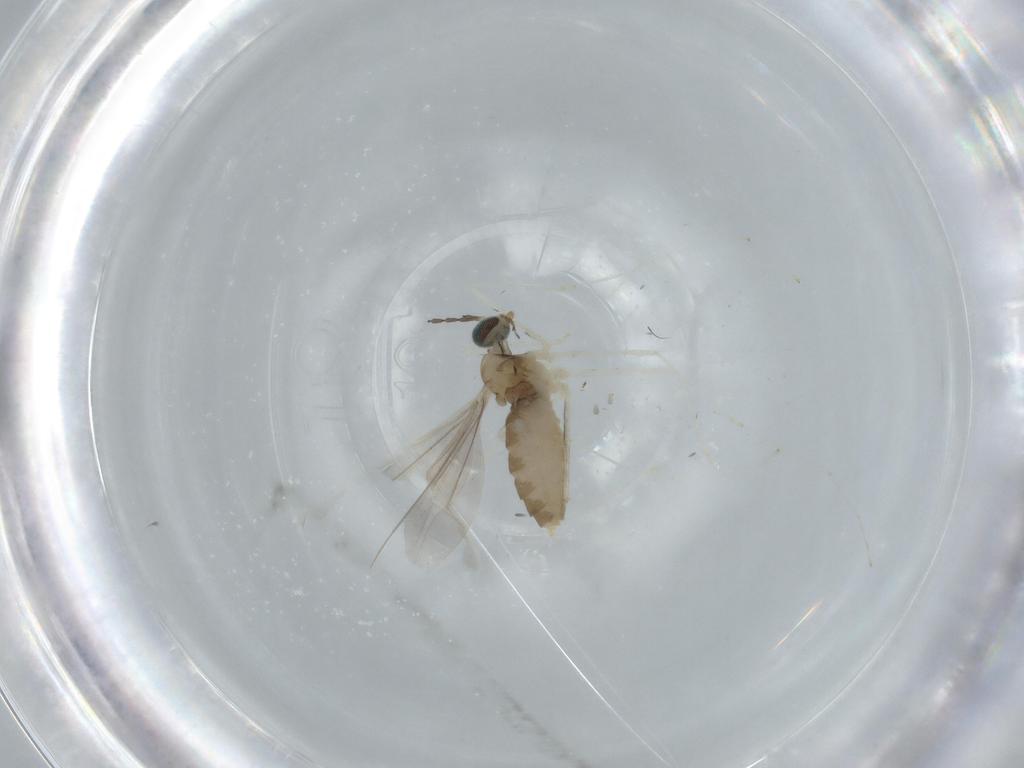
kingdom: Animalia
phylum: Arthropoda
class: Insecta
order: Diptera
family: Cecidomyiidae
